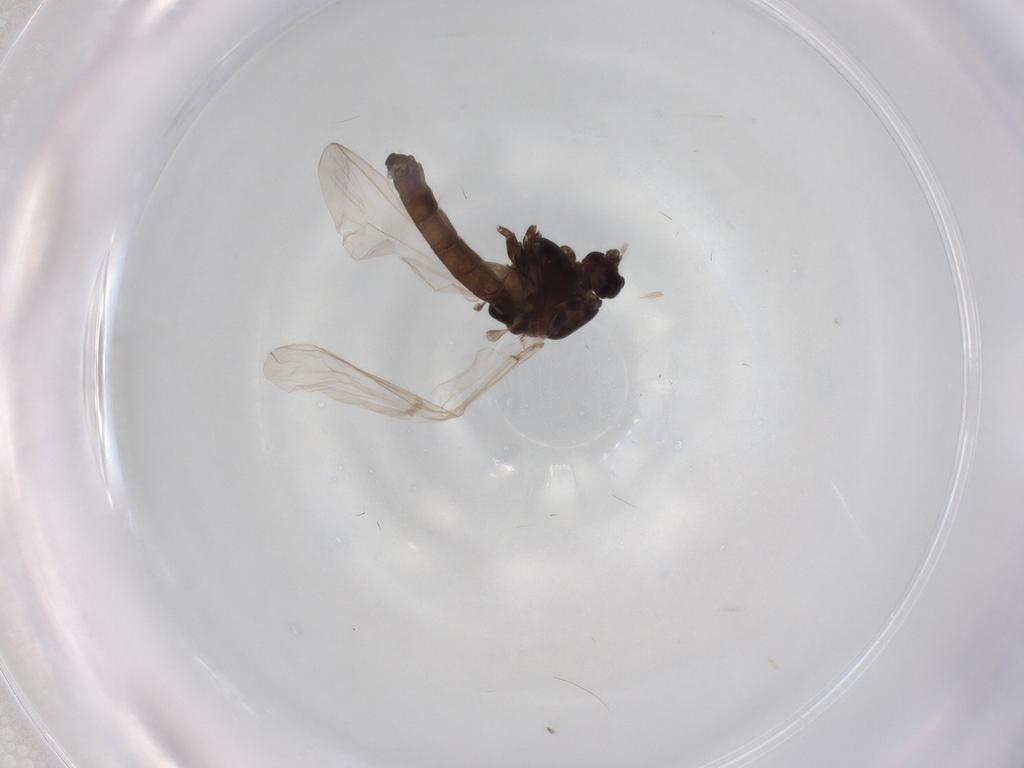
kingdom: Animalia
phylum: Arthropoda
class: Insecta
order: Diptera
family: Chironomidae
